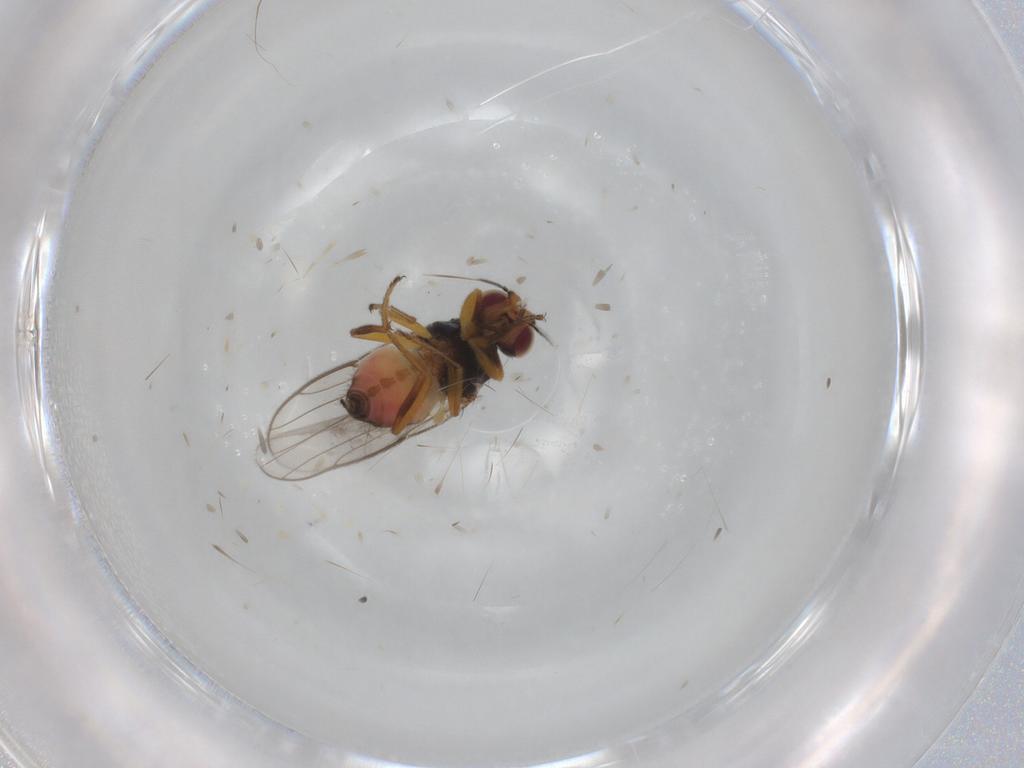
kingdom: Animalia
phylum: Arthropoda
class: Insecta
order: Diptera
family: Chloropidae
